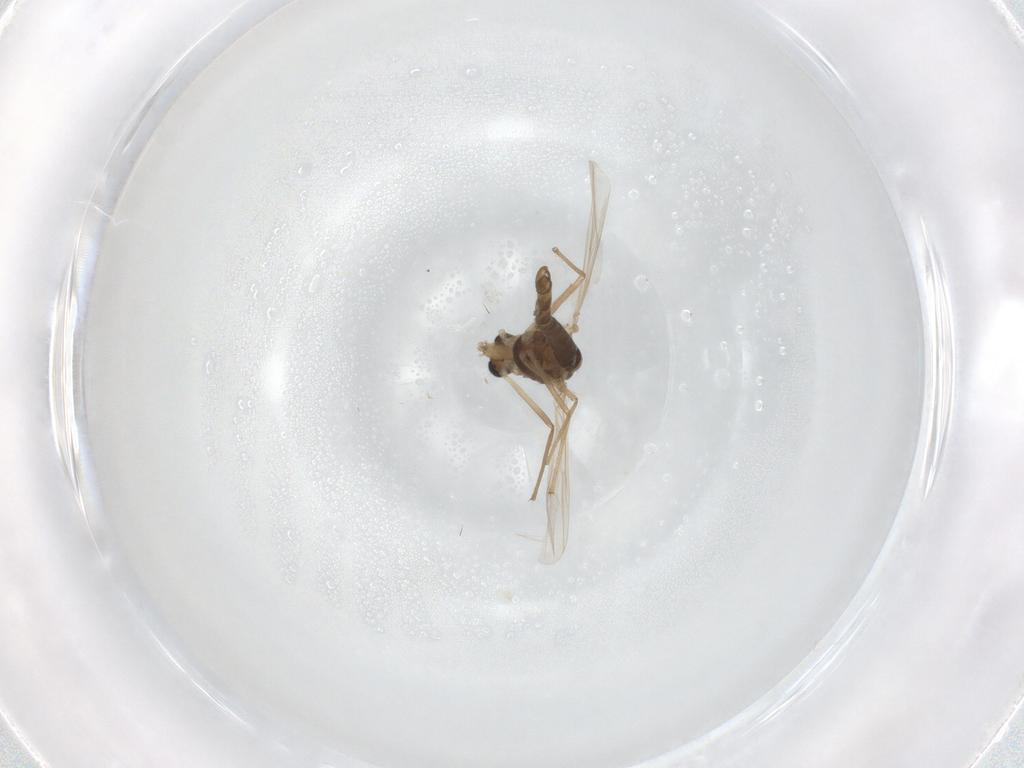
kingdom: Animalia
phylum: Arthropoda
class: Insecta
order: Diptera
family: Chironomidae
